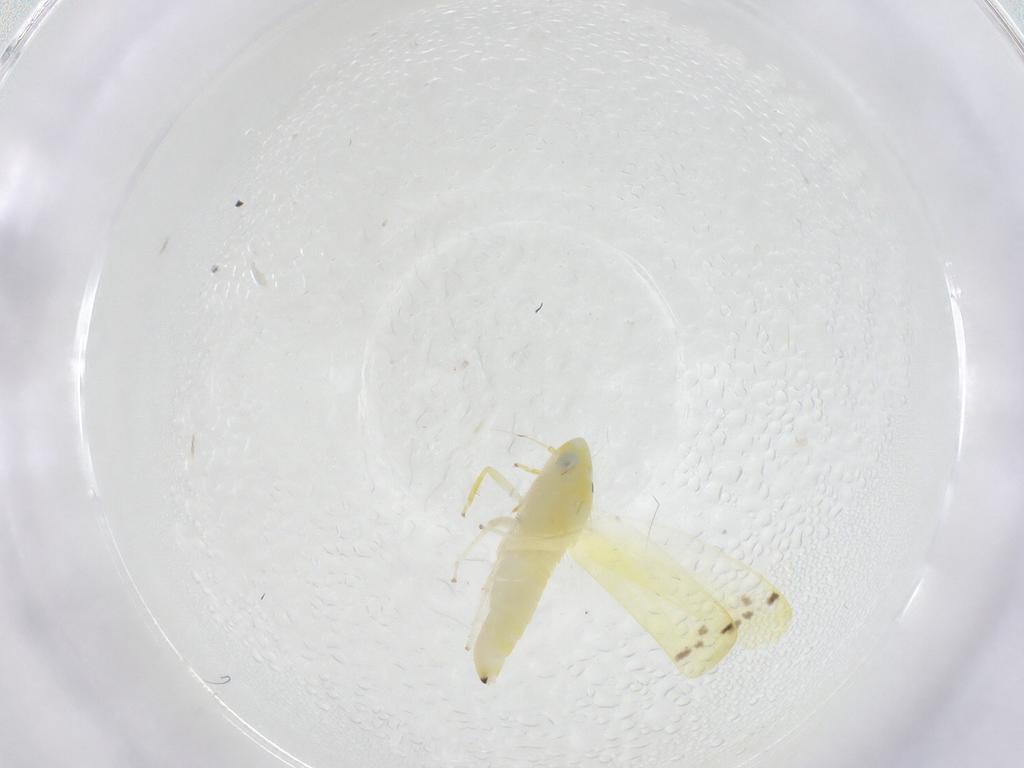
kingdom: Animalia
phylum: Arthropoda
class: Insecta
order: Hemiptera
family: Cicadellidae
